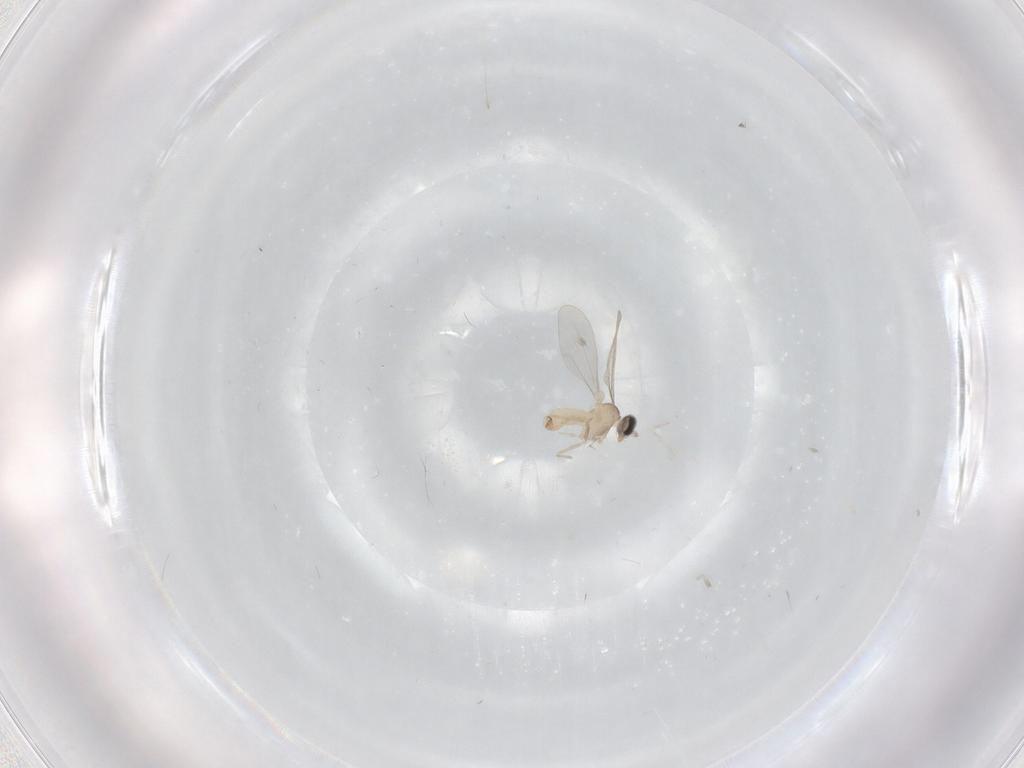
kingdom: Animalia
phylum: Arthropoda
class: Insecta
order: Diptera
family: Cecidomyiidae
